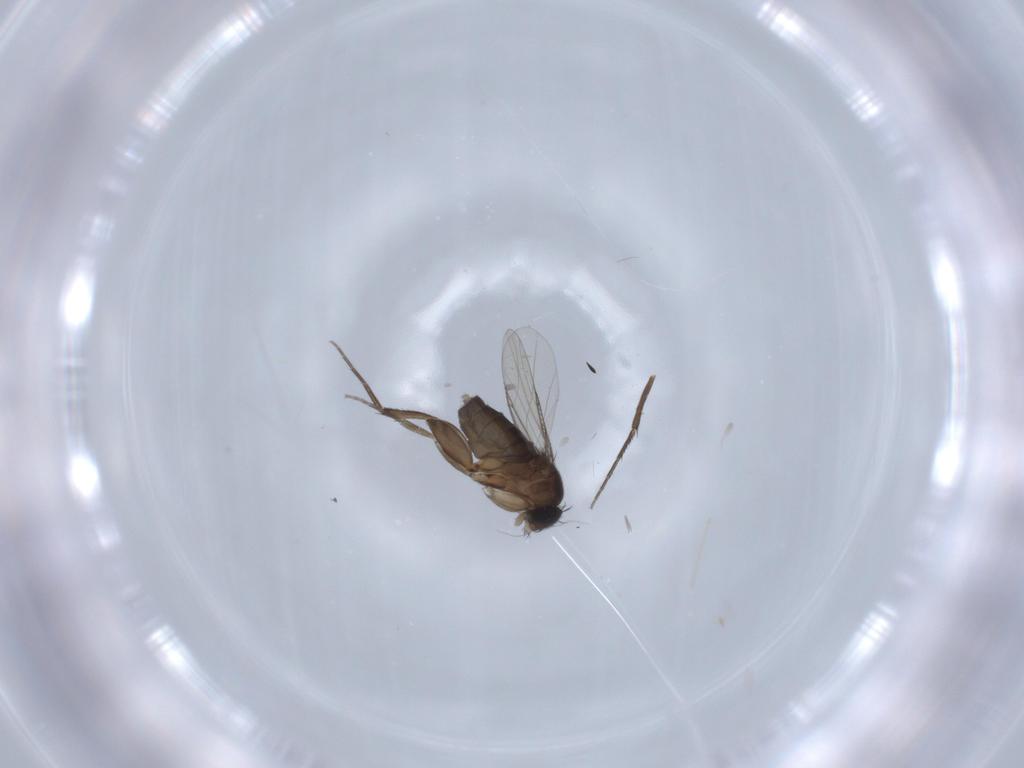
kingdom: Animalia
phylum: Arthropoda
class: Insecta
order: Diptera
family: Phoridae
